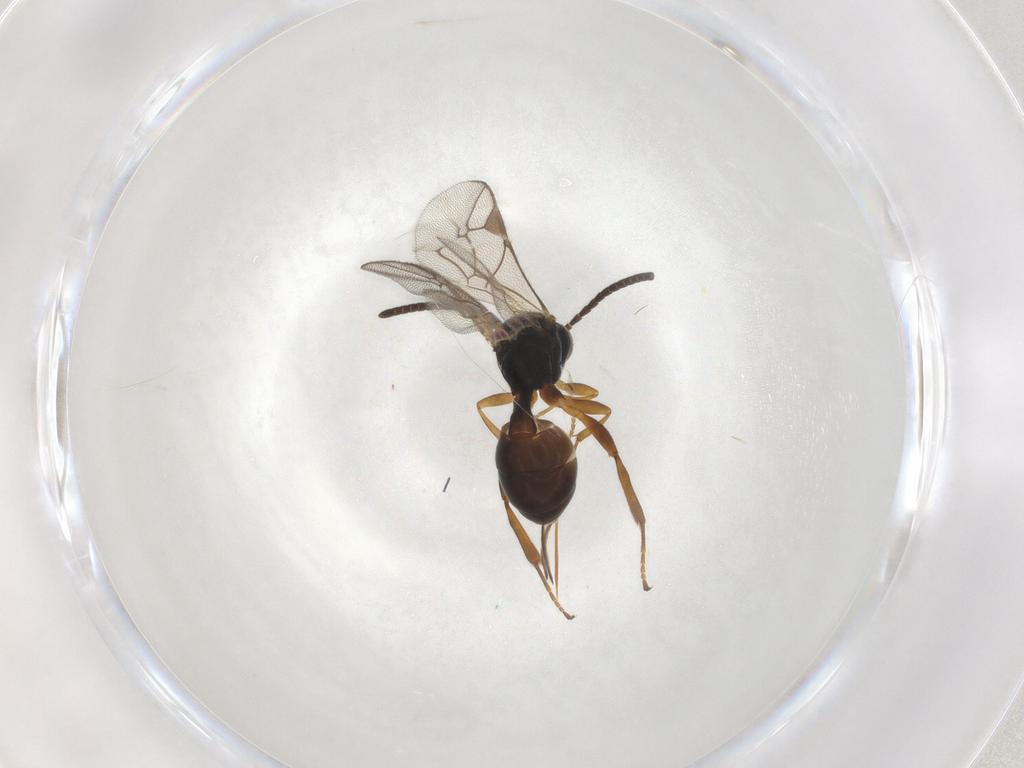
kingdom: Animalia
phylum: Arthropoda
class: Insecta
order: Hymenoptera
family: Ichneumonidae
